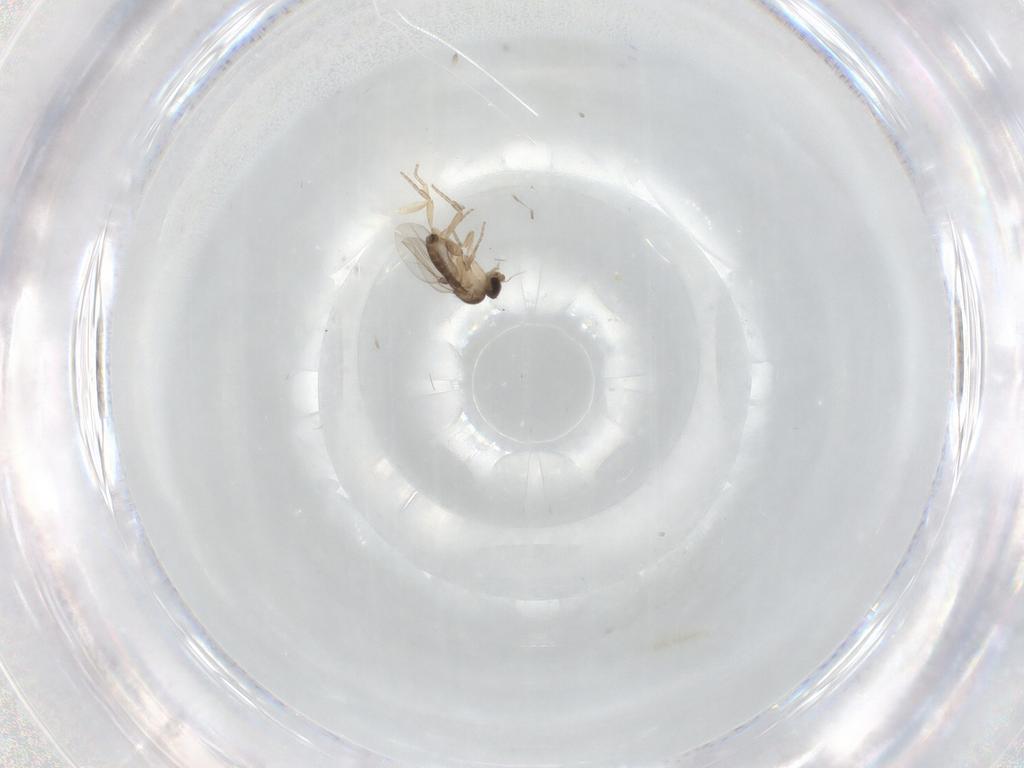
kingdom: Animalia
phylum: Arthropoda
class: Insecta
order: Diptera
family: Phoridae
